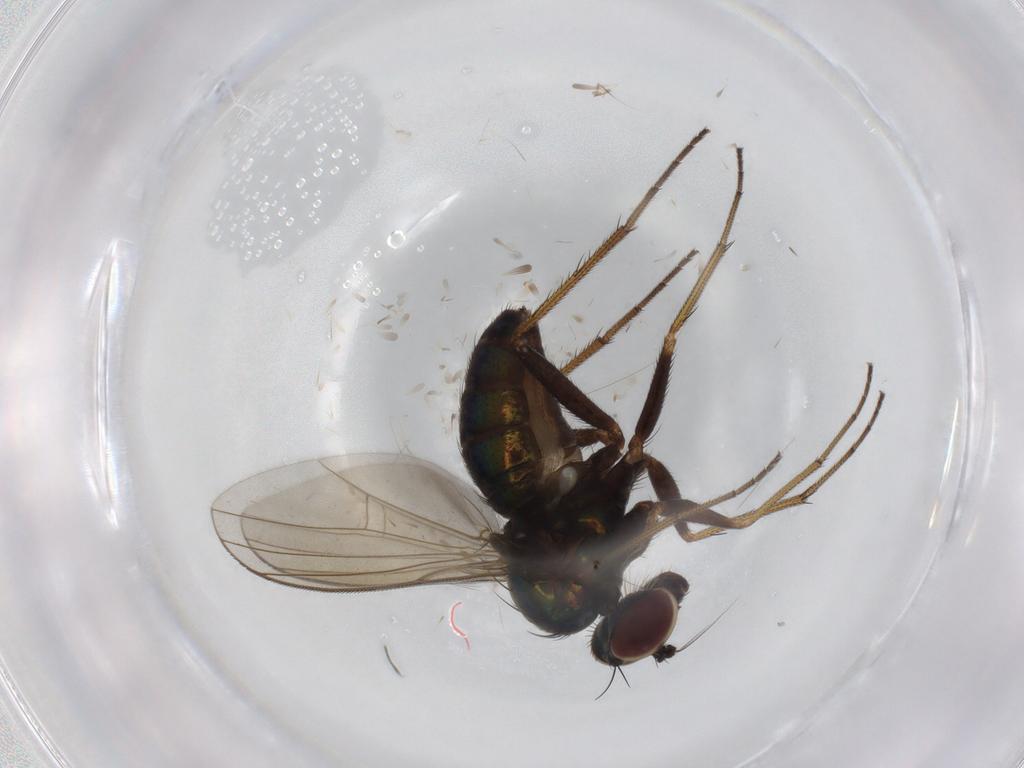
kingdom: Animalia
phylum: Arthropoda
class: Insecta
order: Diptera
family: Dolichopodidae
